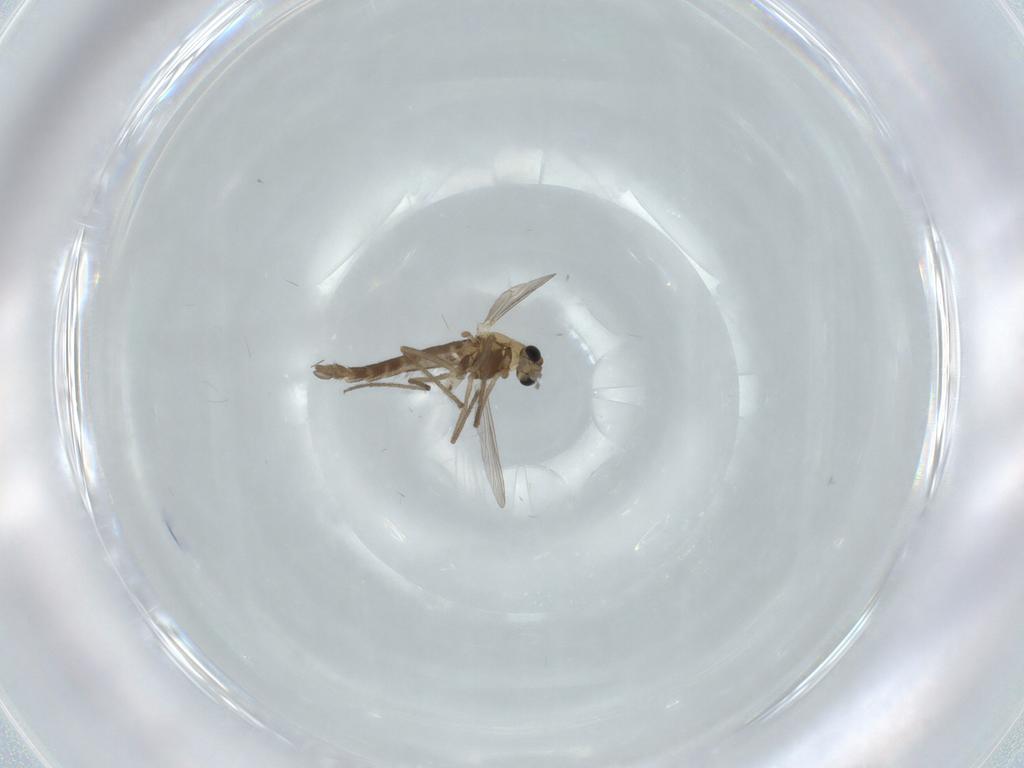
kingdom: Animalia
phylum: Arthropoda
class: Insecta
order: Diptera
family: Chironomidae
